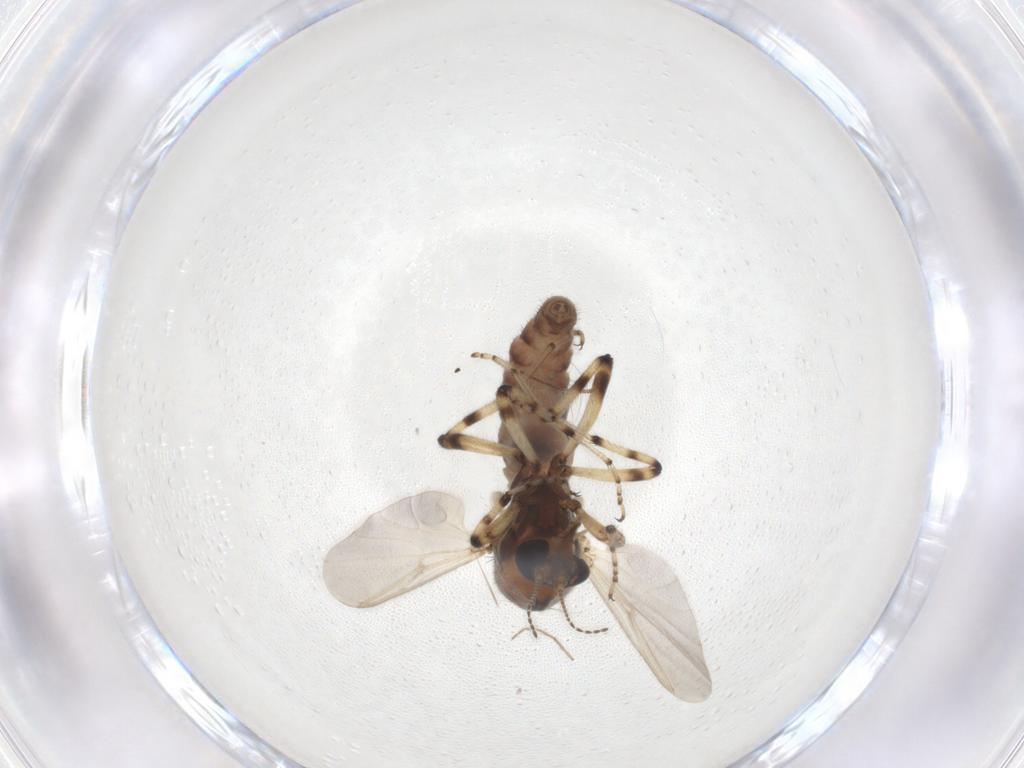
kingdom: Animalia
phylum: Arthropoda
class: Insecta
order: Diptera
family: Ceratopogonidae
